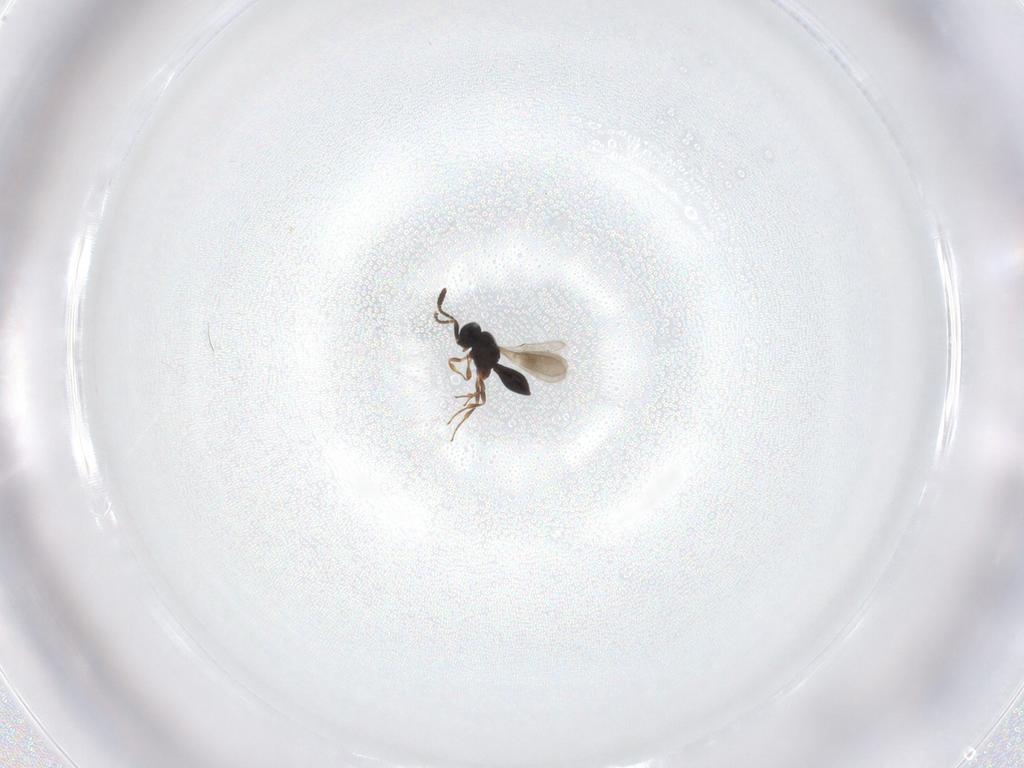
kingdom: Animalia
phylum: Arthropoda
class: Insecta
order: Hymenoptera
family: Scelionidae
